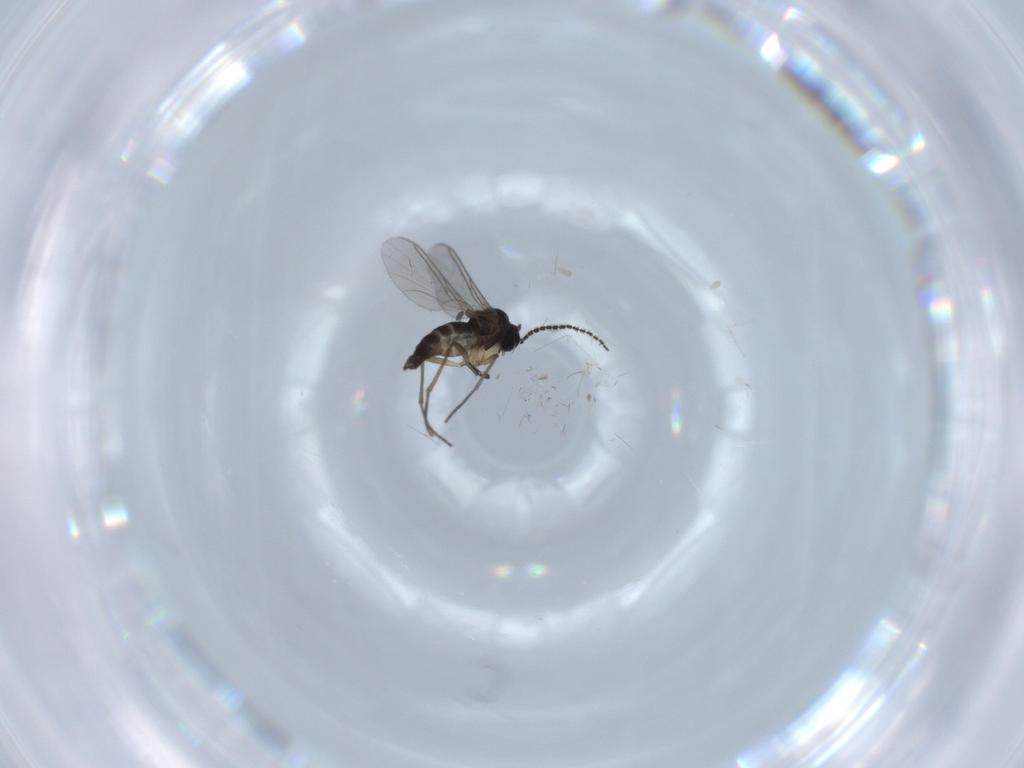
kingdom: Animalia
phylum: Arthropoda
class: Insecta
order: Diptera
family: Sciaridae
